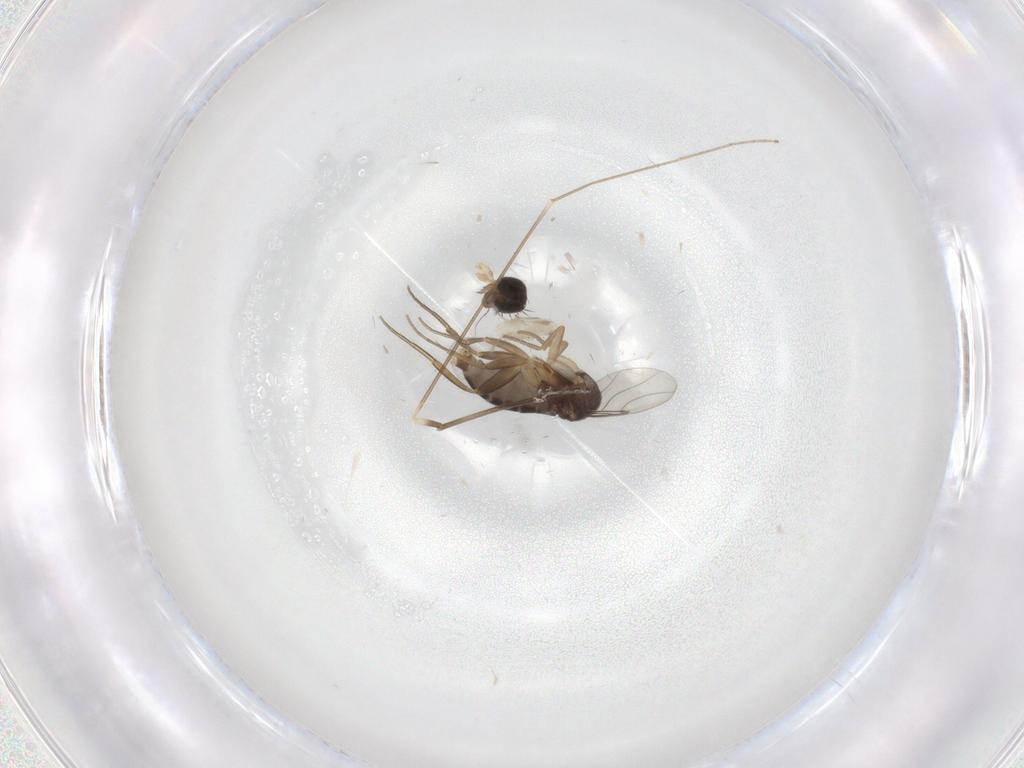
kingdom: Animalia
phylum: Arthropoda
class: Insecta
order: Diptera
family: Phoridae
